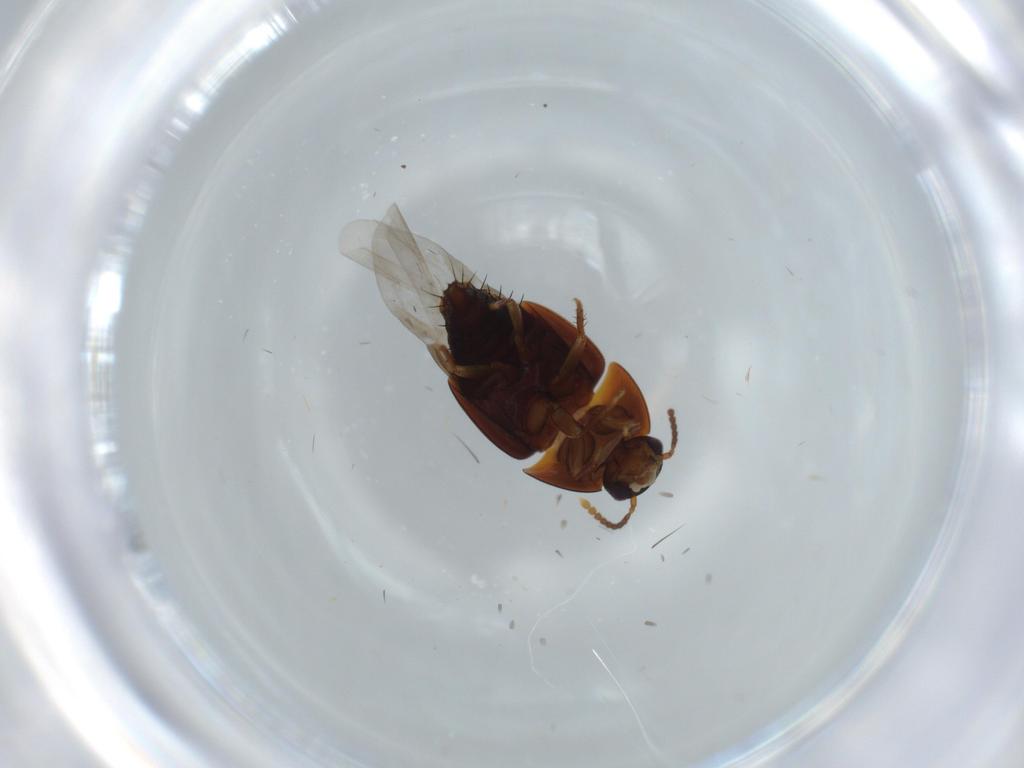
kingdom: Animalia
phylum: Arthropoda
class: Insecta
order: Coleoptera
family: Staphylinidae
